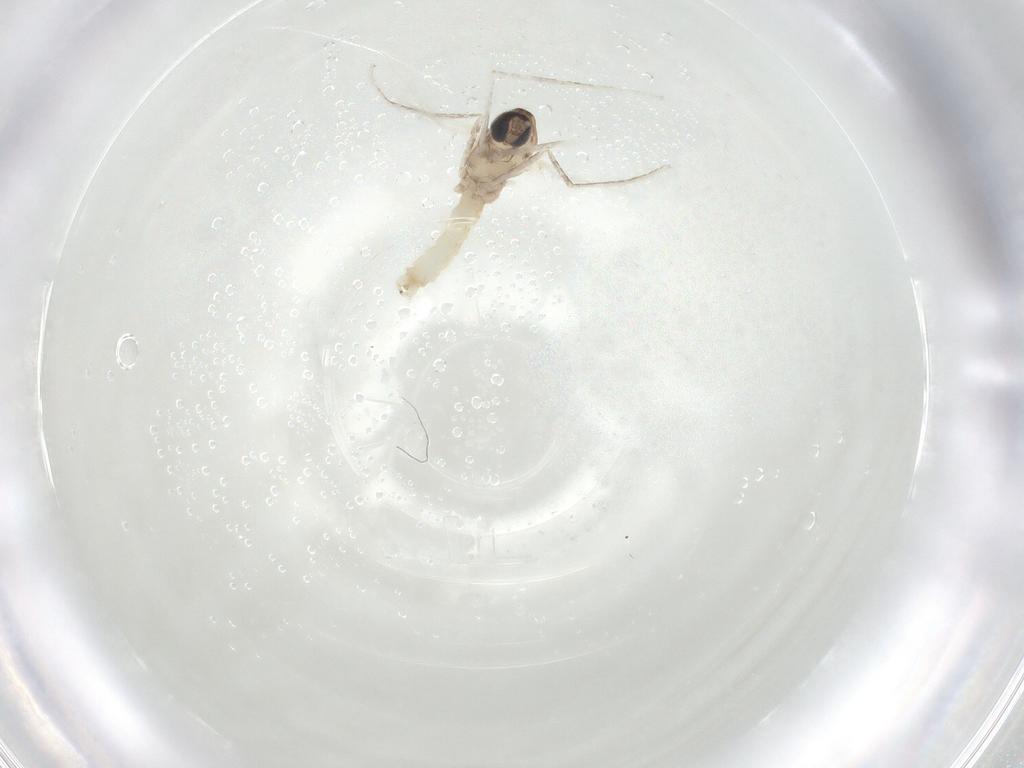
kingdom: Animalia
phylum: Arthropoda
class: Insecta
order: Diptera
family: Cecidomyiidae
